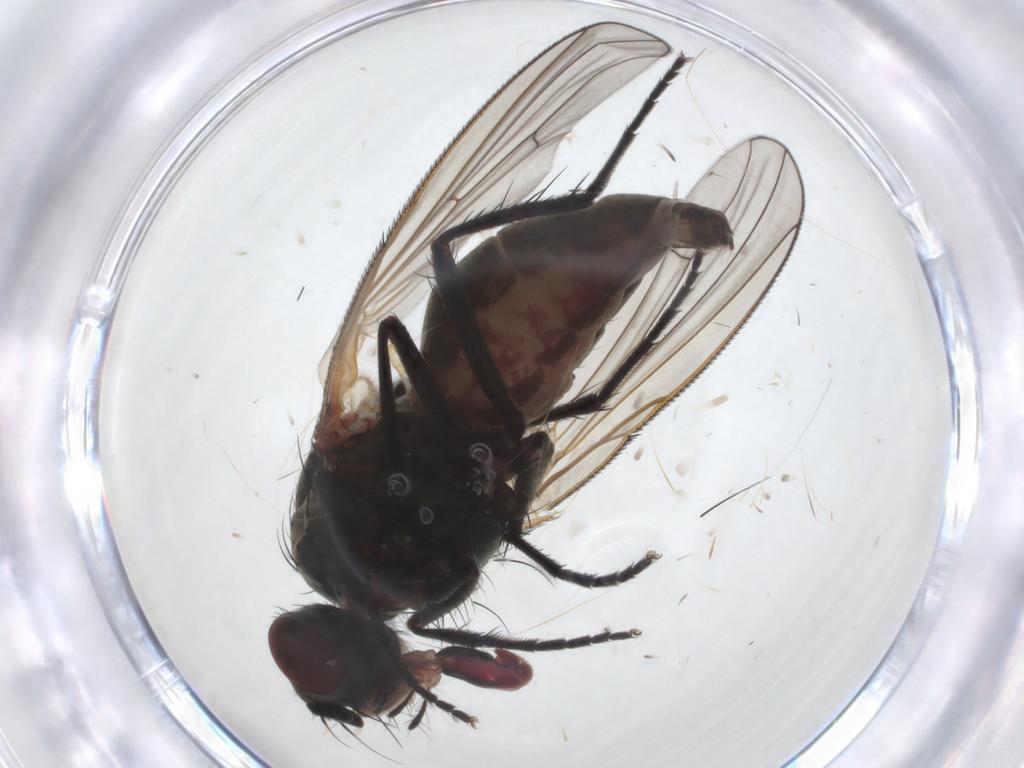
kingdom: Animalia
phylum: Arthropoda
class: Insecta
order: Diptera
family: Anthomyiidae
